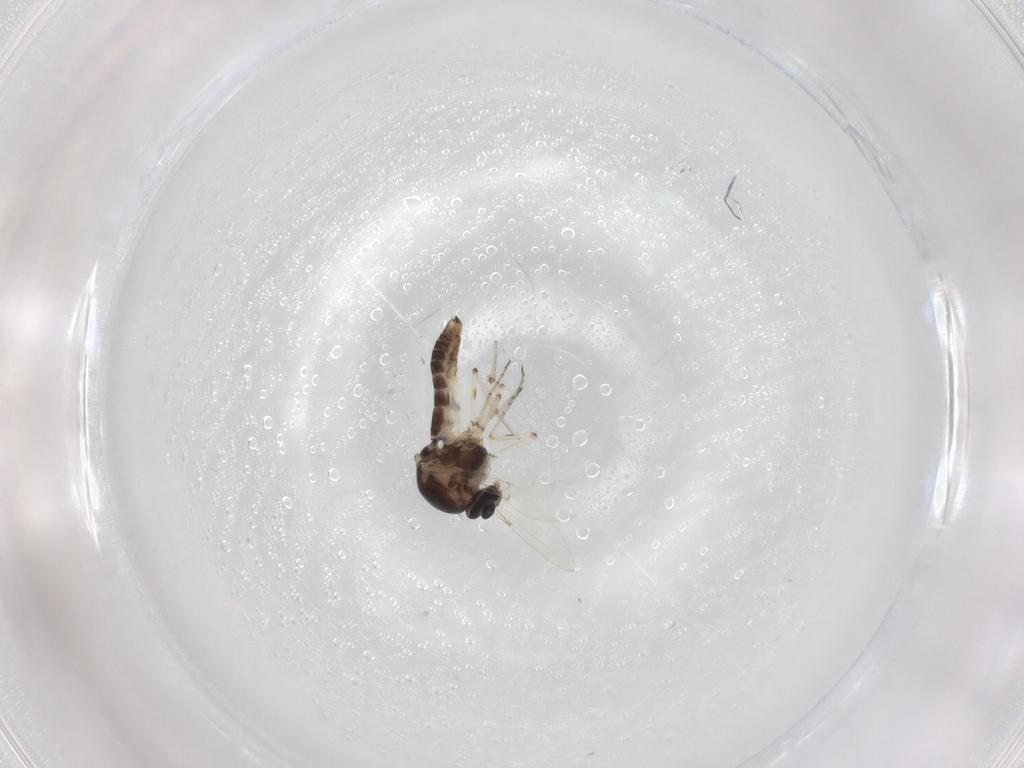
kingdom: Animalia
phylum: Arthropoda
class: Insecta
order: Diptera
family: Ceratopogonidae
